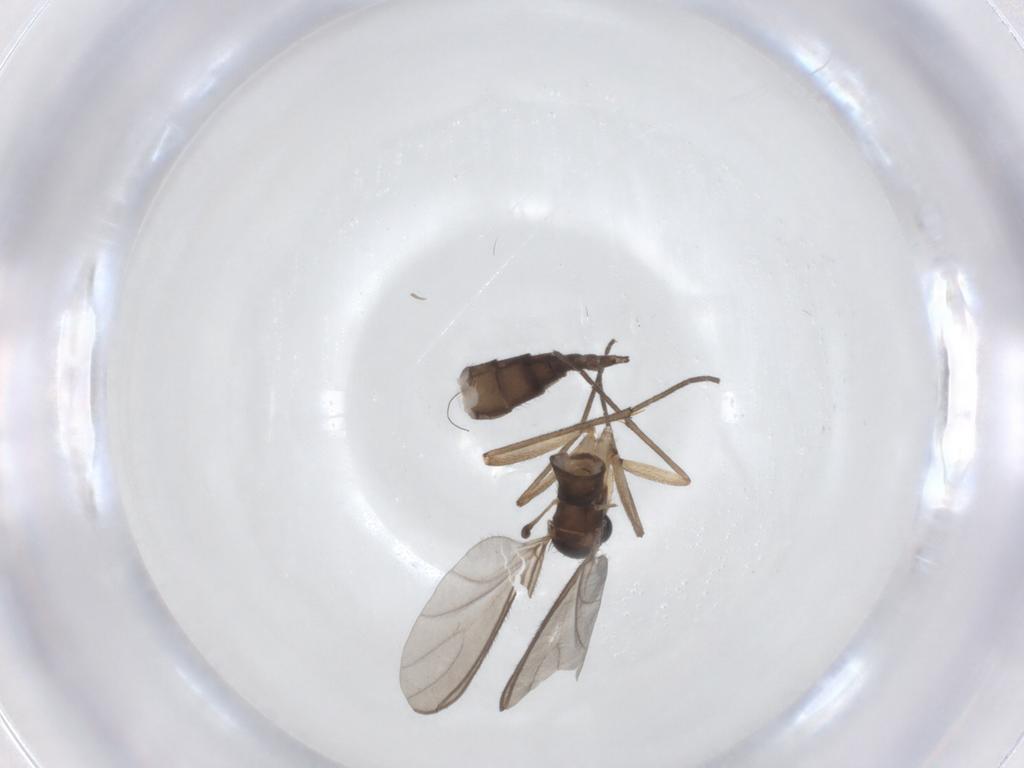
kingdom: Animalia
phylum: Arthropoda
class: Insecta
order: Diptera
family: Sciaridae
